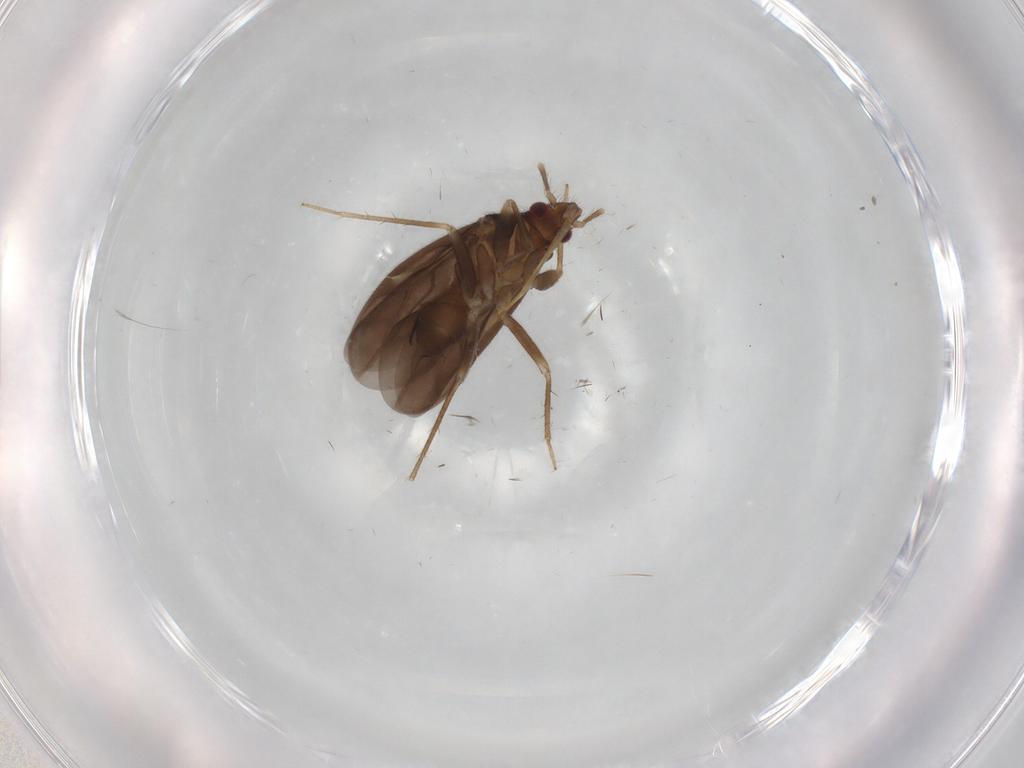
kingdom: Animalia
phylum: Arthropoda
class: Insecta
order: Hemiptera
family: Ceratocombidae
